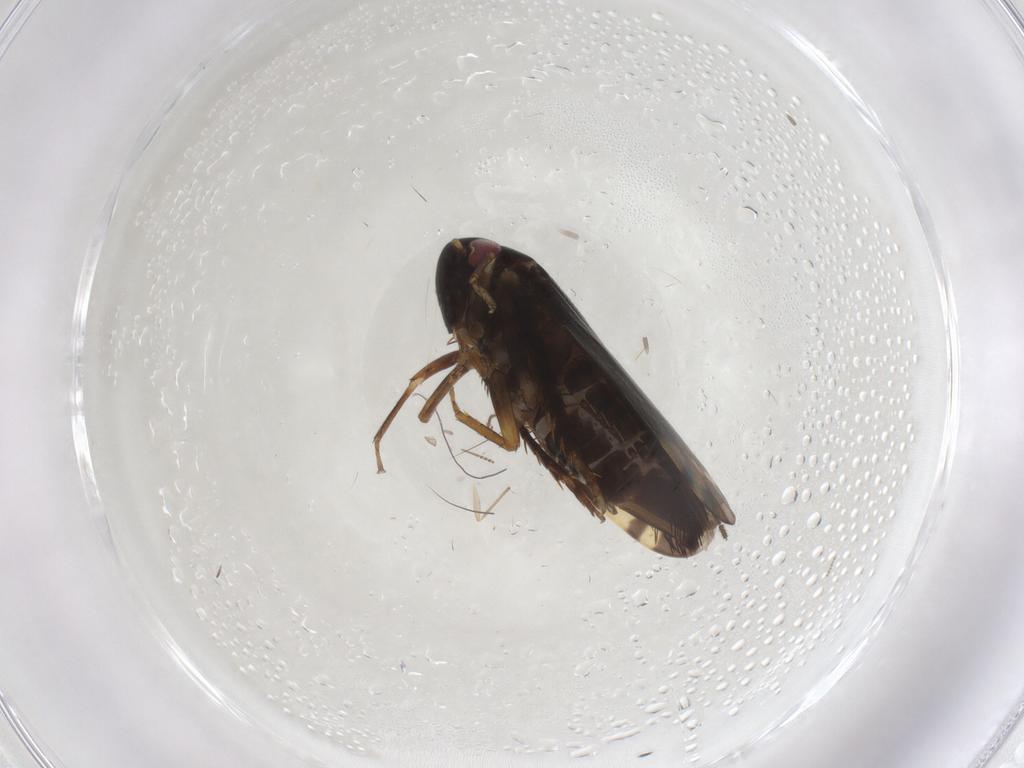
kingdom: Animalia
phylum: Arthropoda
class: Insecta
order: Hemiptera
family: Cicadellidae
